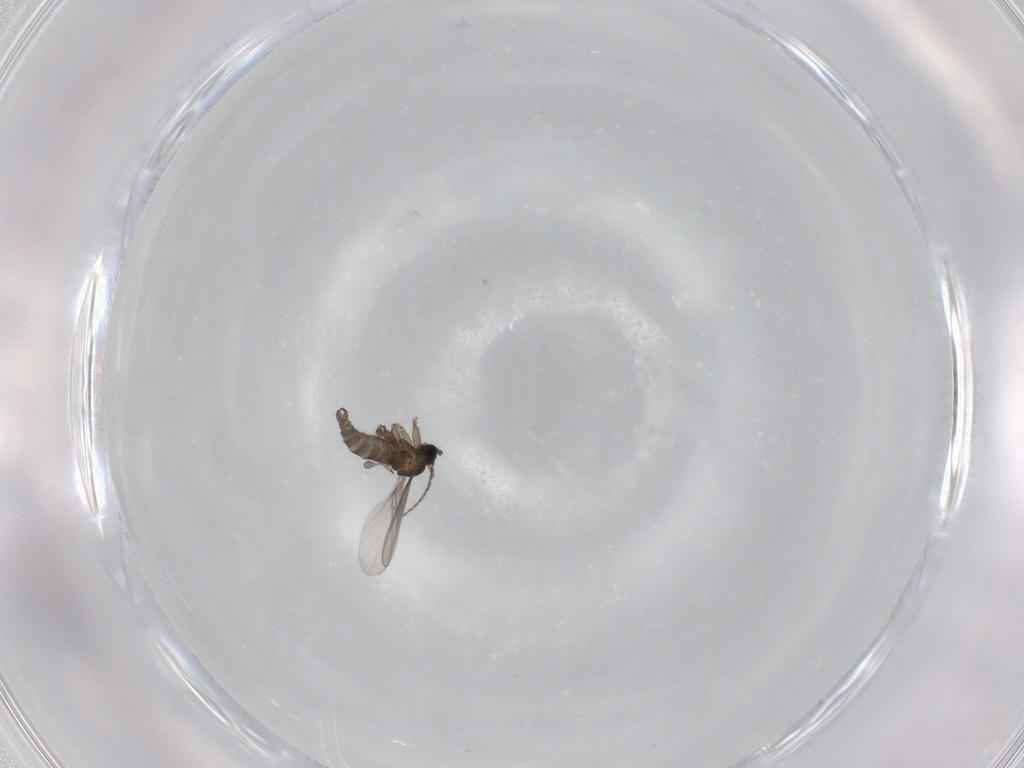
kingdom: Animalia
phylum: Arthropoda
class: Insecta
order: Diptera
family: Sciaridae
